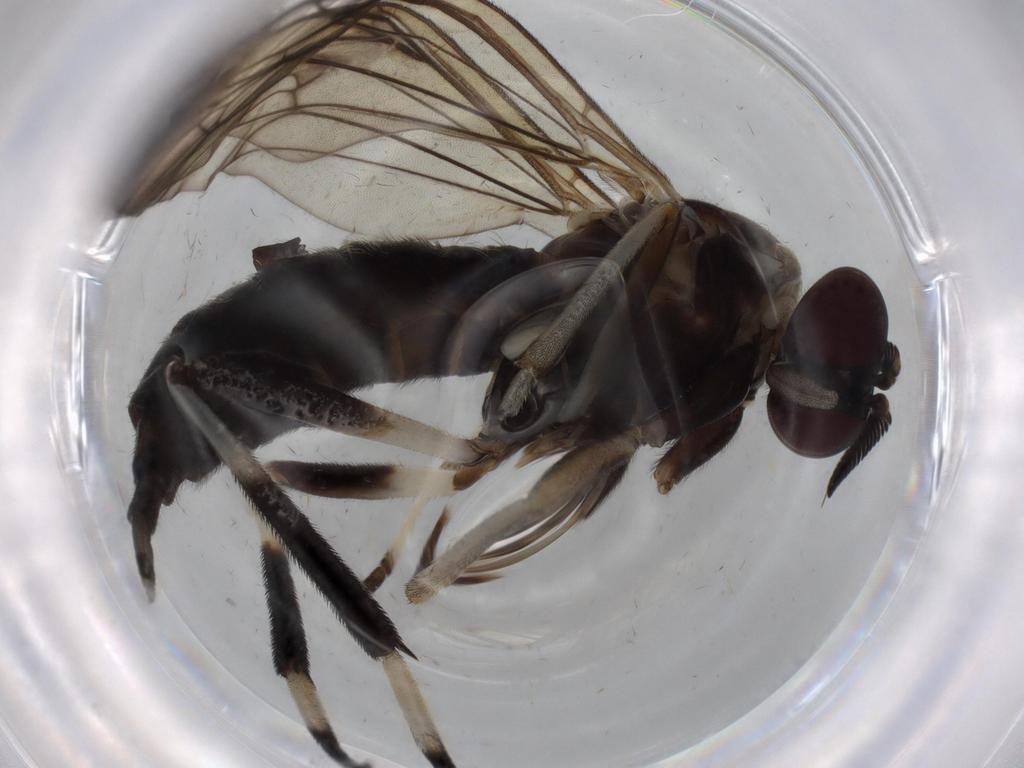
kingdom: Animalia
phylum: Arthropoda
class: Insecta
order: Diptera
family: Xylophagidae
